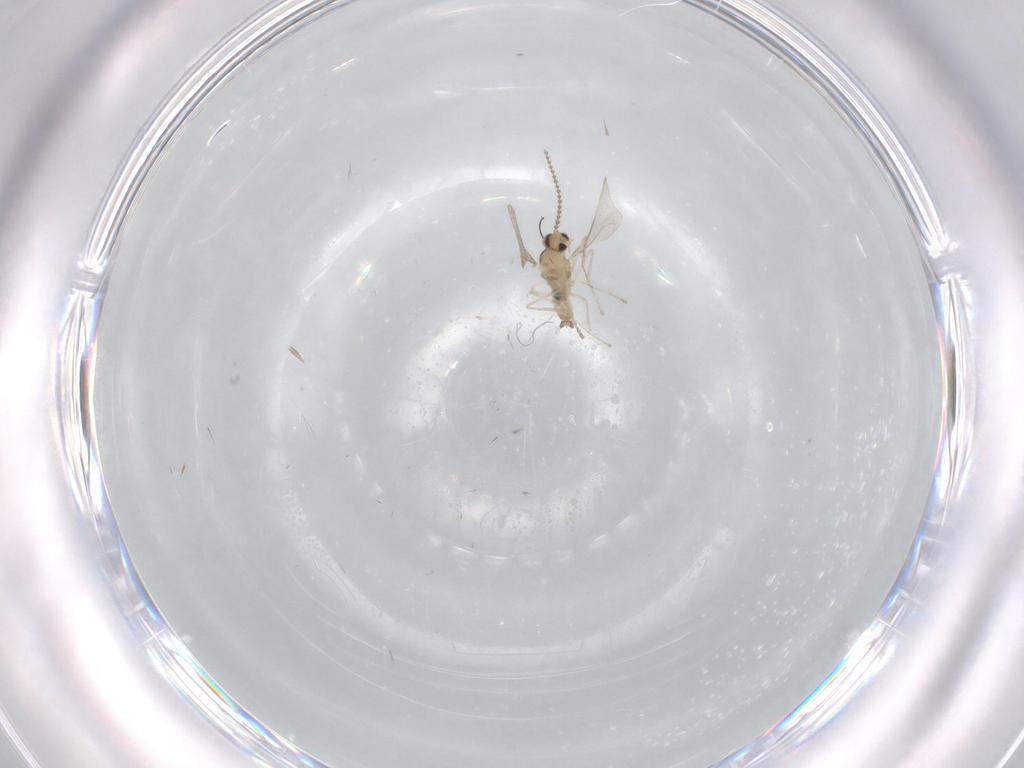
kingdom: Animalia
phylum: Arthropoda
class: Insecta
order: Diptera
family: Cecidomyiidae
